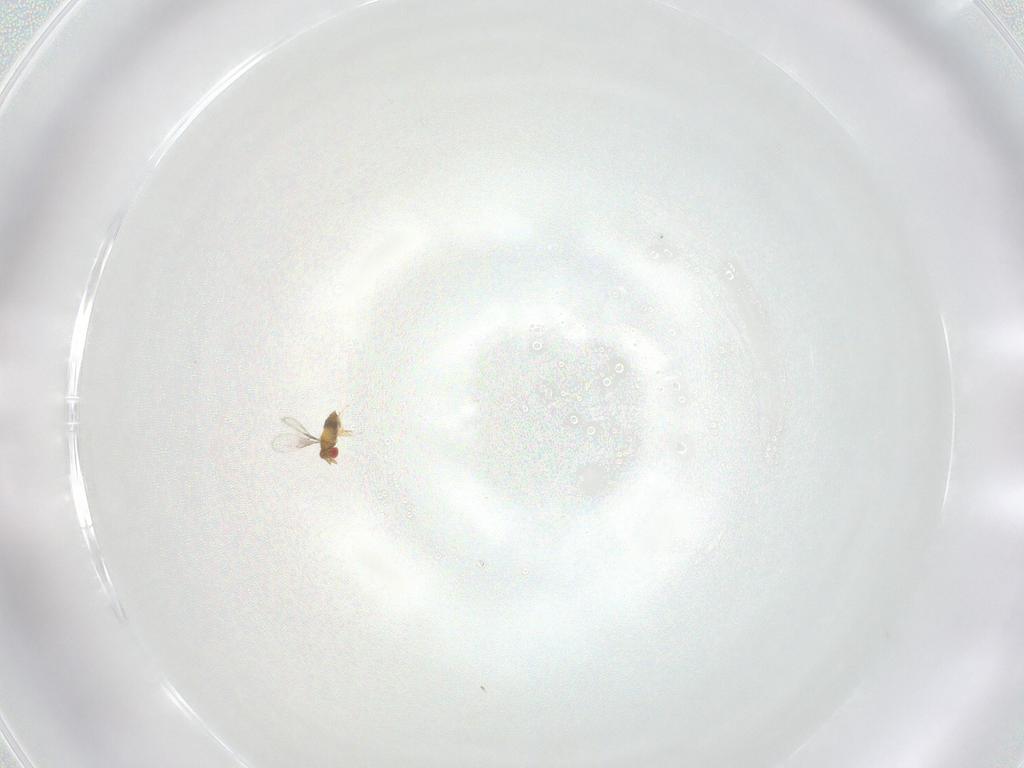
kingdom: Animalia
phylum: Arthropoda
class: Insecta
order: Hymenoptera
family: Trichogrammatidae
